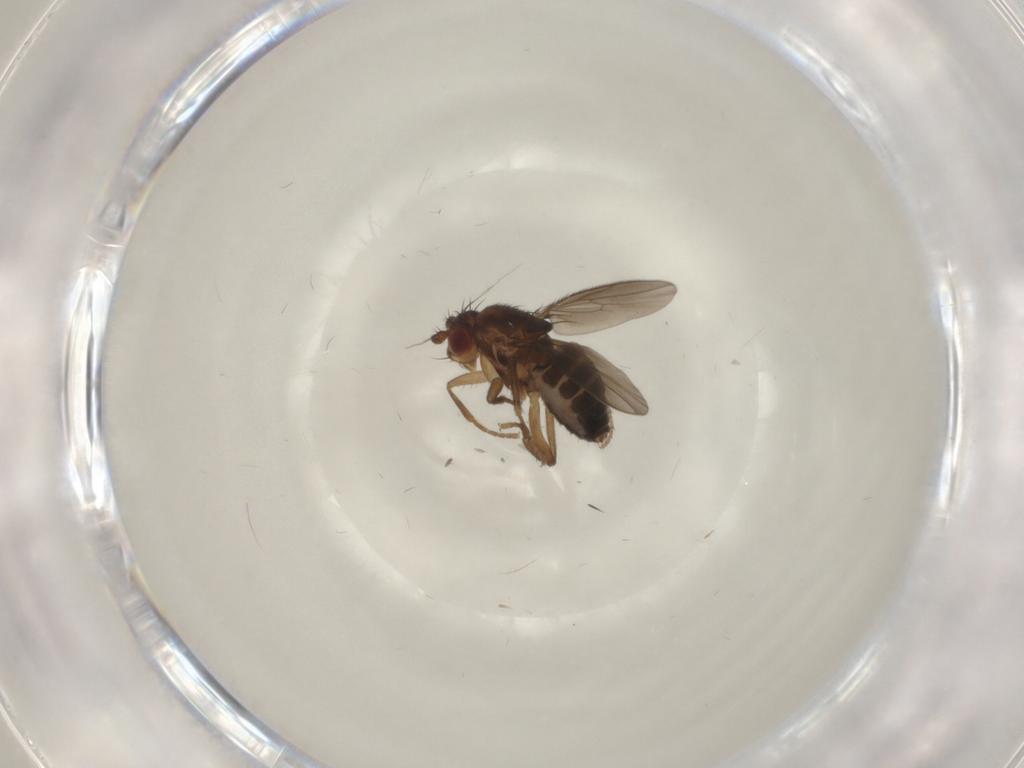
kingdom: Animalia
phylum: Arthropoda
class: Insecta
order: Diptera
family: Sphaeroceridae
